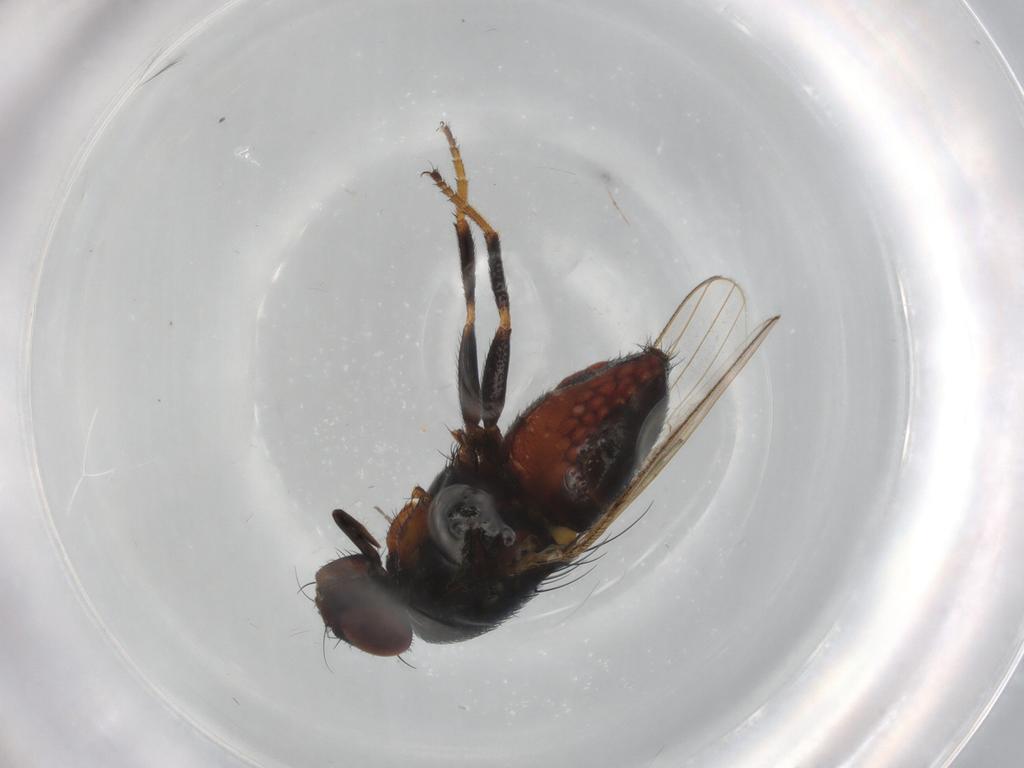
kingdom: Animalia
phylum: Arthropoda
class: Insecta
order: Diptera
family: Milichiidae
